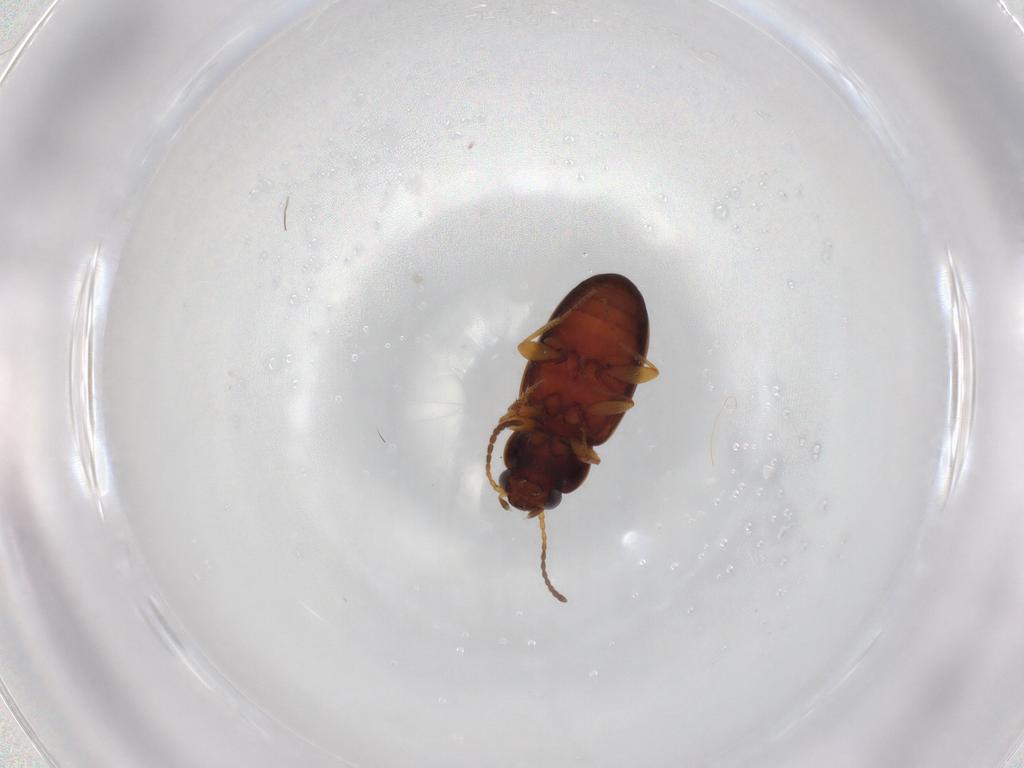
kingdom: Animalia
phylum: Arthropoda
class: Insecta
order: Coleoptera
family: Carabidae
